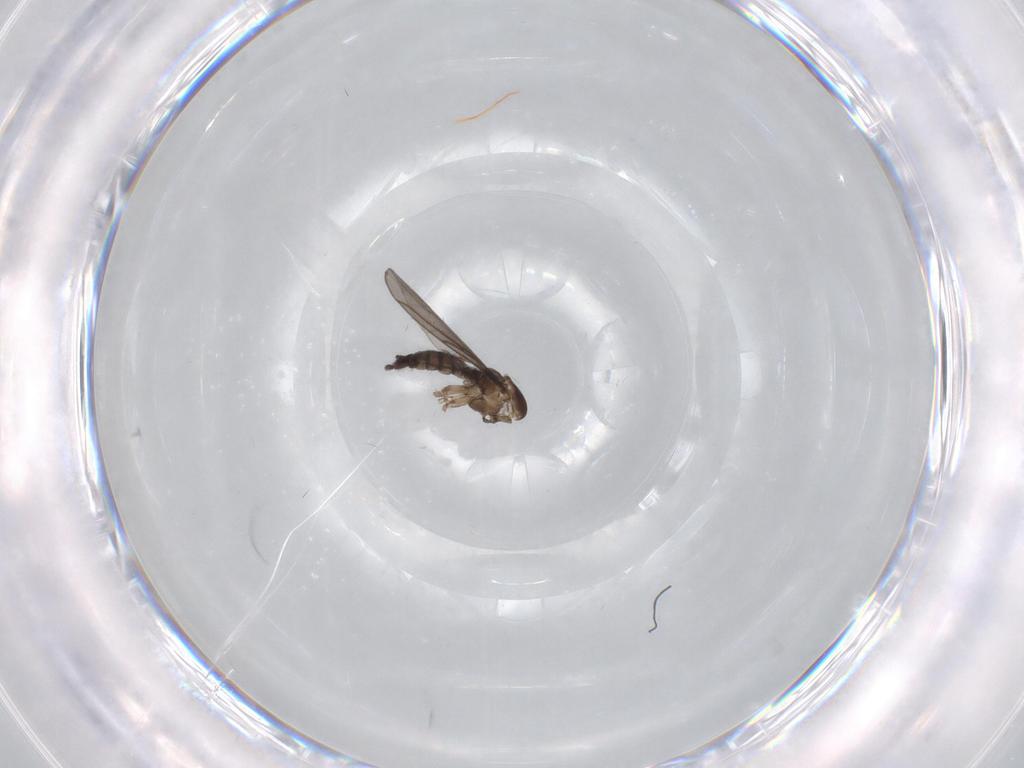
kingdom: Animalia
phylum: Arthropoda
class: Insecta
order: Diptera
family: Sciaridae
